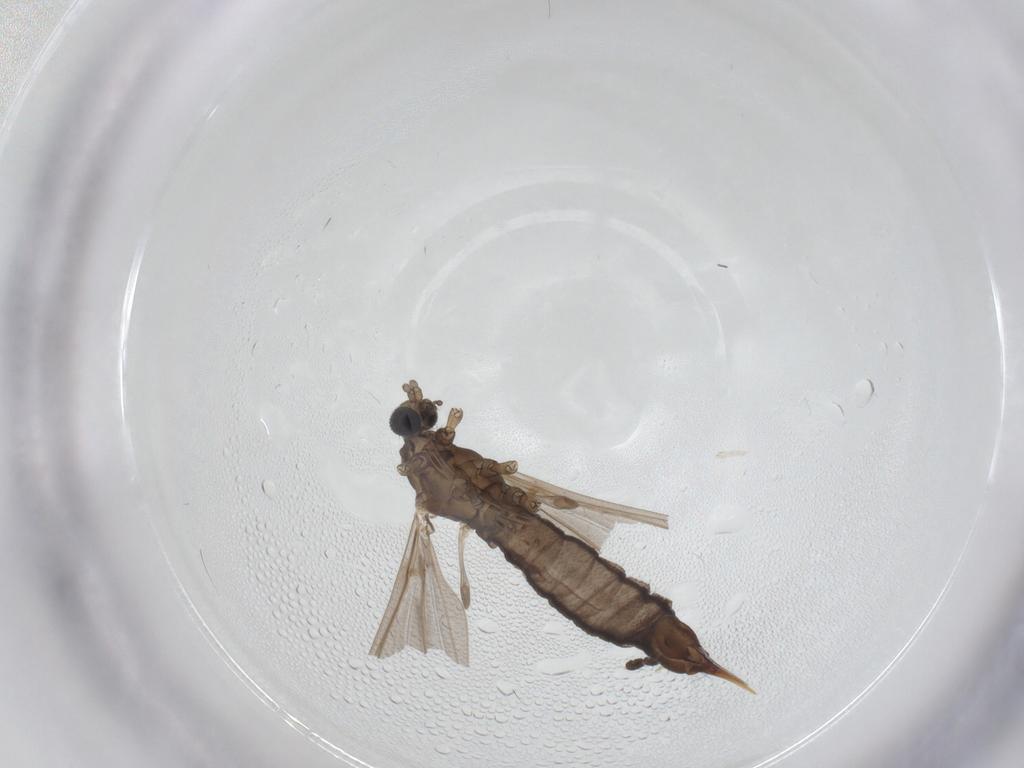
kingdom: Animalia
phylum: Arthropoda
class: Insecta
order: Diptera
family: Limoniidae
